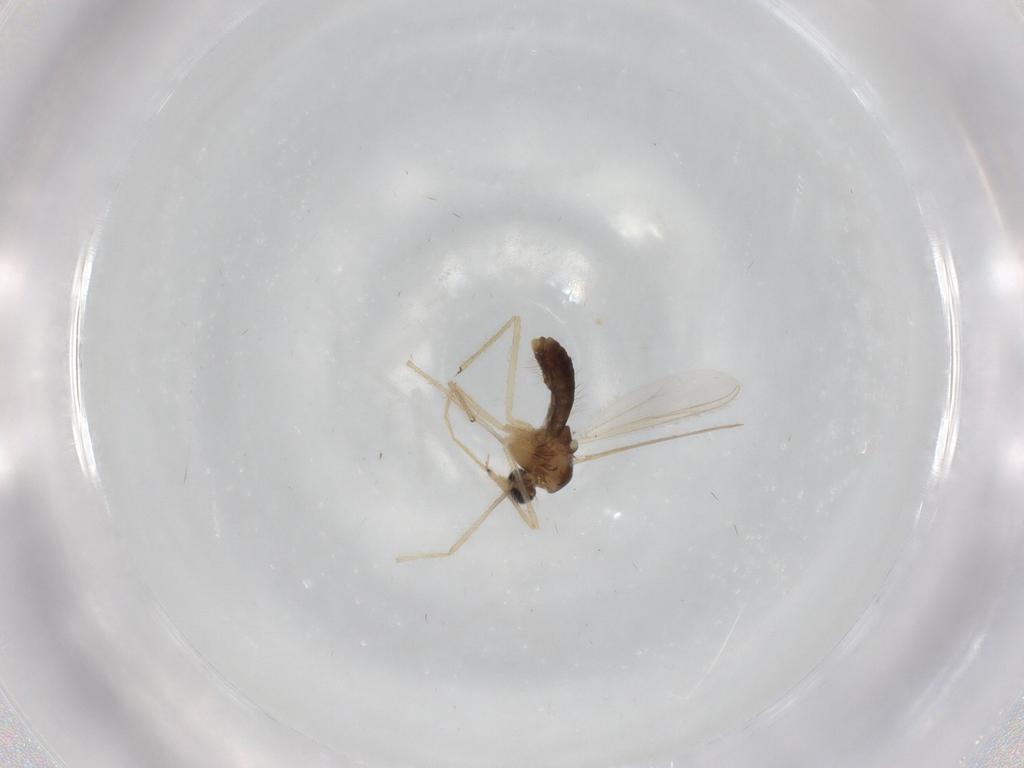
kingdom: Animalia
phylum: Arthropoda
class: Insecta
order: Diptera
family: Chironomidae
